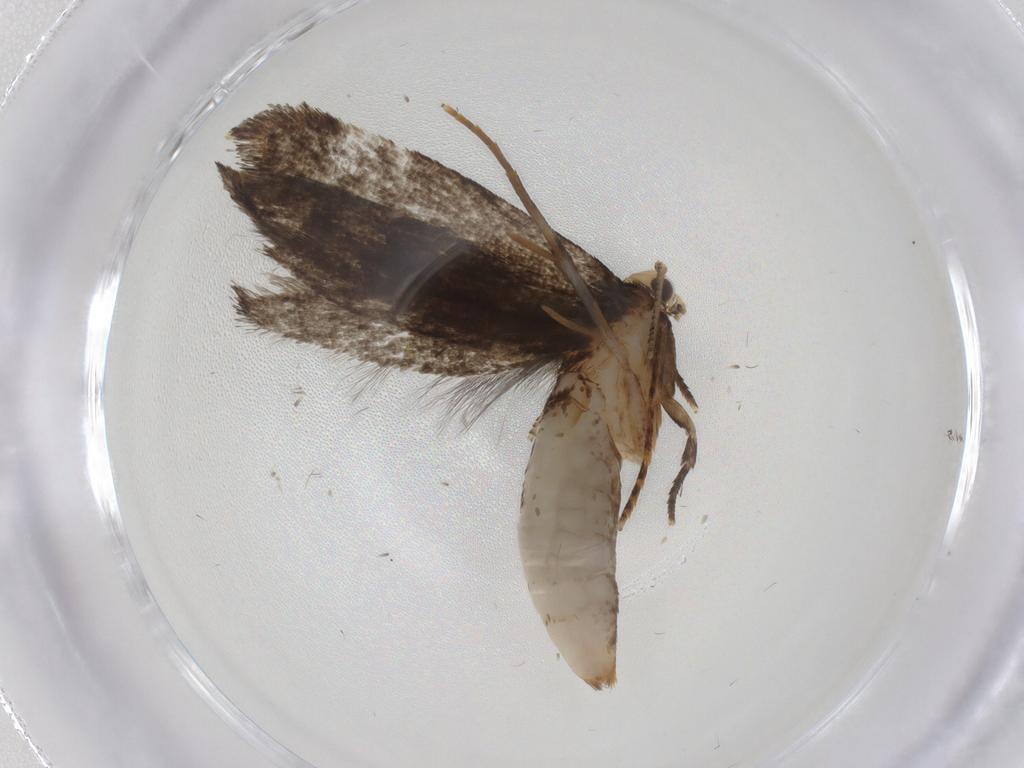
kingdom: Animalia
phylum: Arthropoda
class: Insecta
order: Lepidoptera
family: Tineidae
